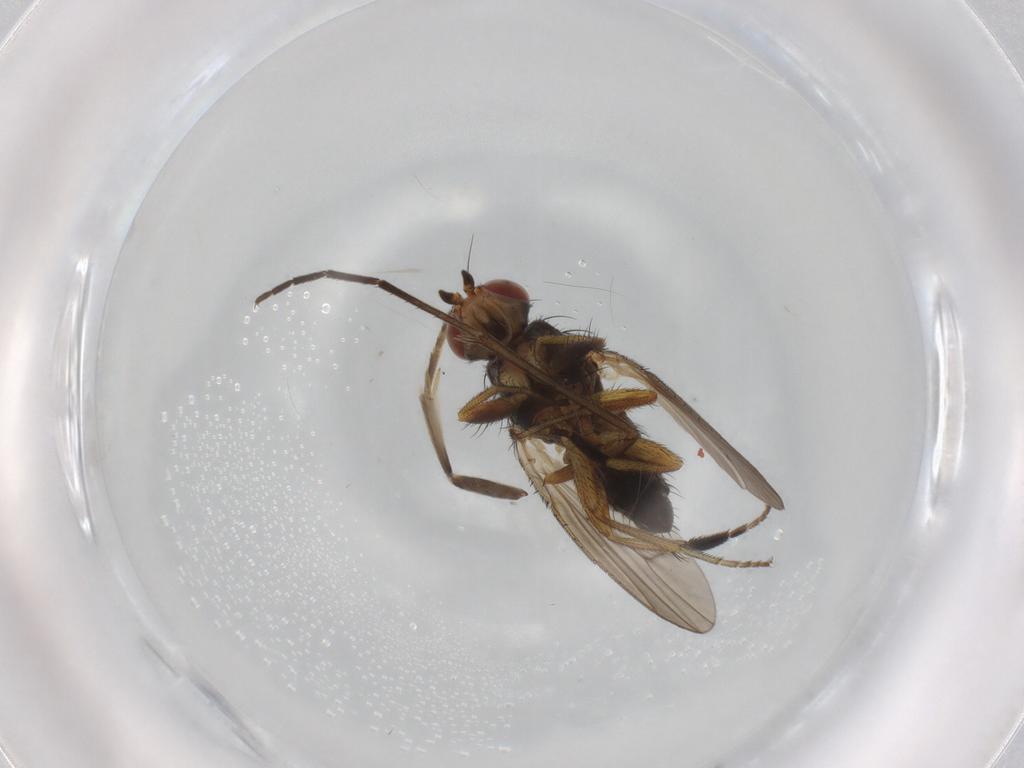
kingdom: Animalia
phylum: Arthropoda
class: Insecta
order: Diptera
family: Heleomyzidae
